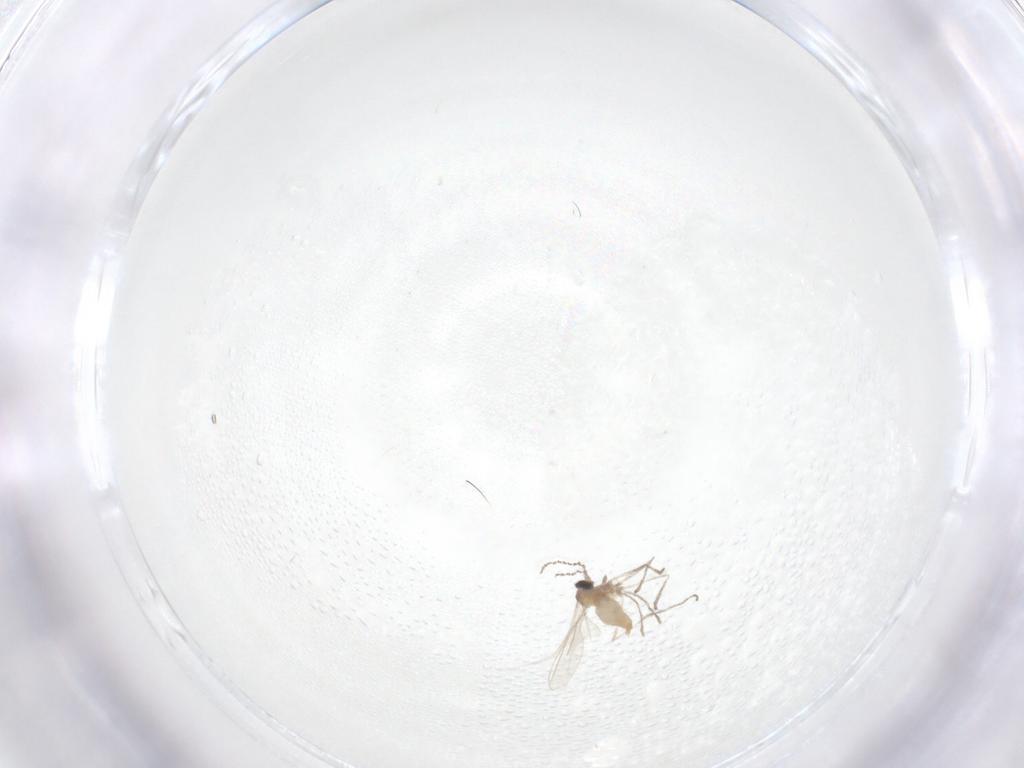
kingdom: Animalia
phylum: Arthropoda
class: Insecta
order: Diptera
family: Cecidomyiidae
